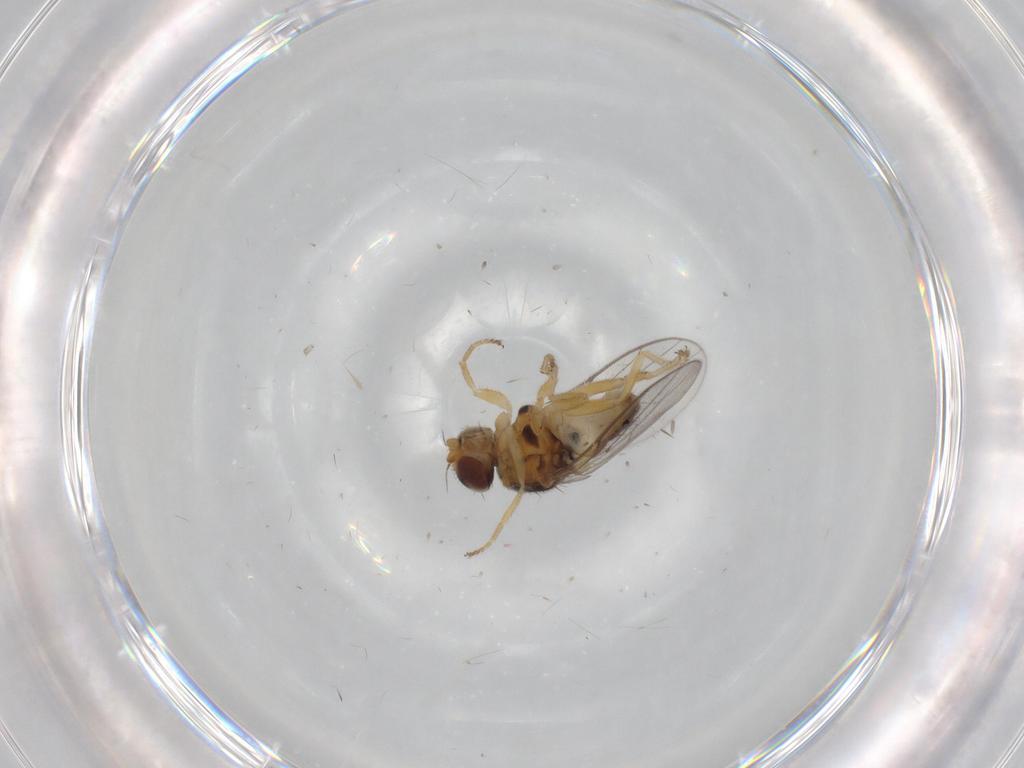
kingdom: Animalia
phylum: Arthropoda
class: Insecta
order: Diptera
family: Chloropidae
